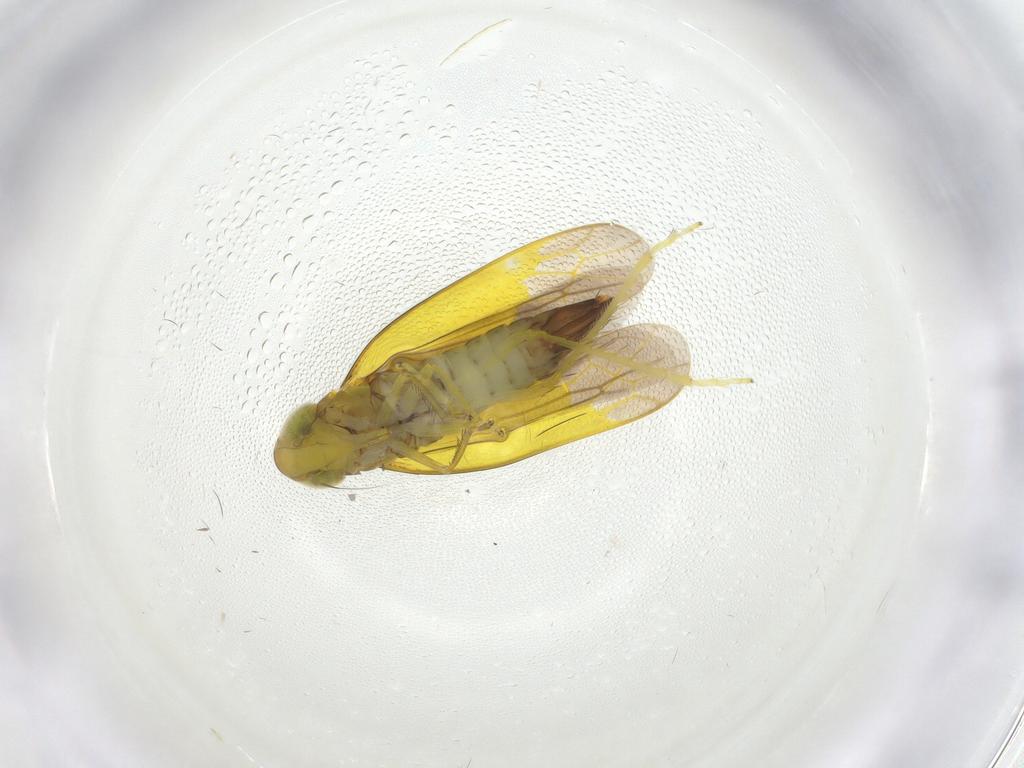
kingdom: Animalia
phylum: Arthropoda
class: Insecta
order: Hemiptera
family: Cicadellidae
